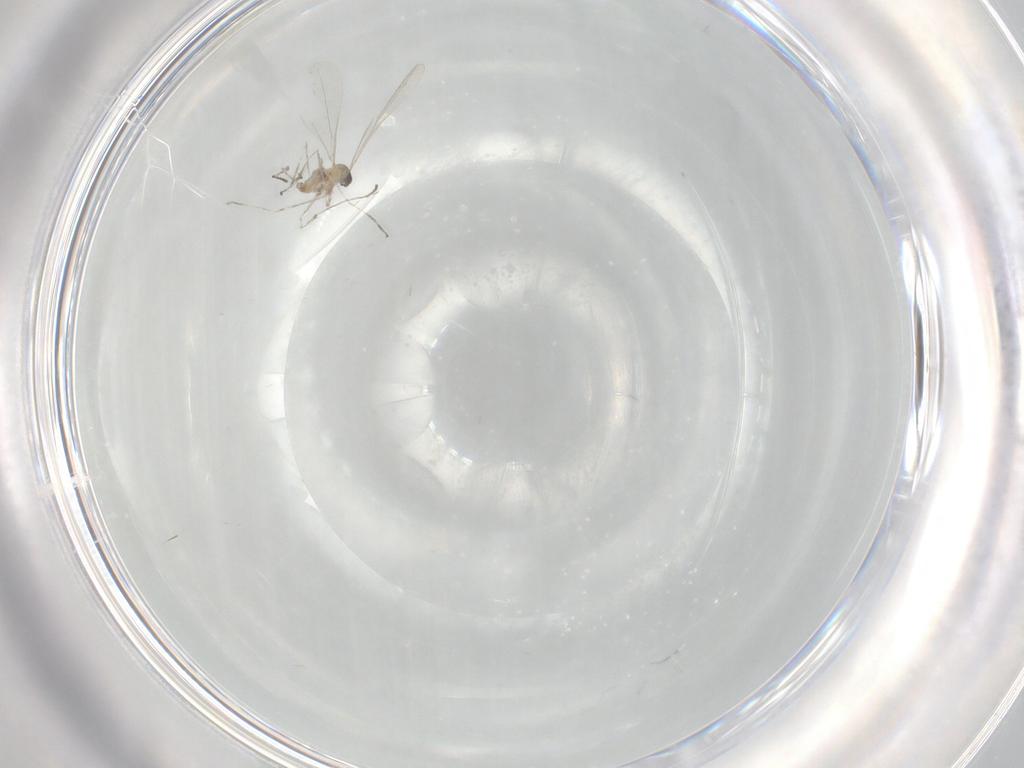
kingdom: Animalia
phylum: Arthropoda
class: Insecta
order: Diptera
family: Cecidomyiidae
